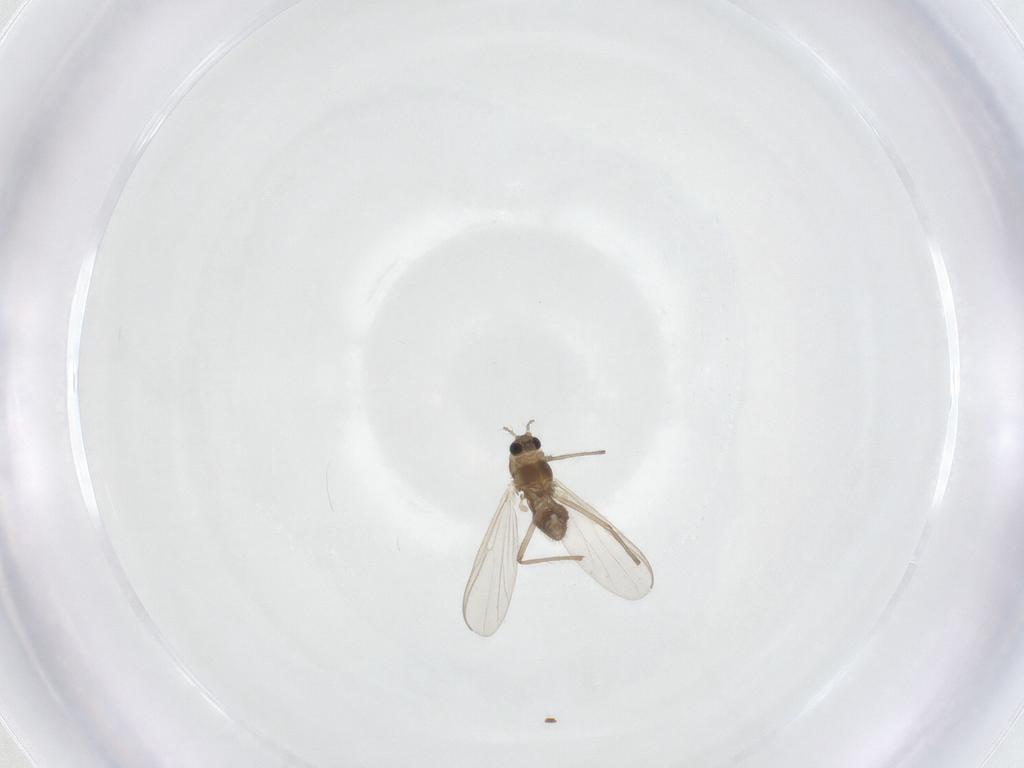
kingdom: Animalia
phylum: Arthropoda
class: Insecta
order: Diptera
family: Chironomidae
